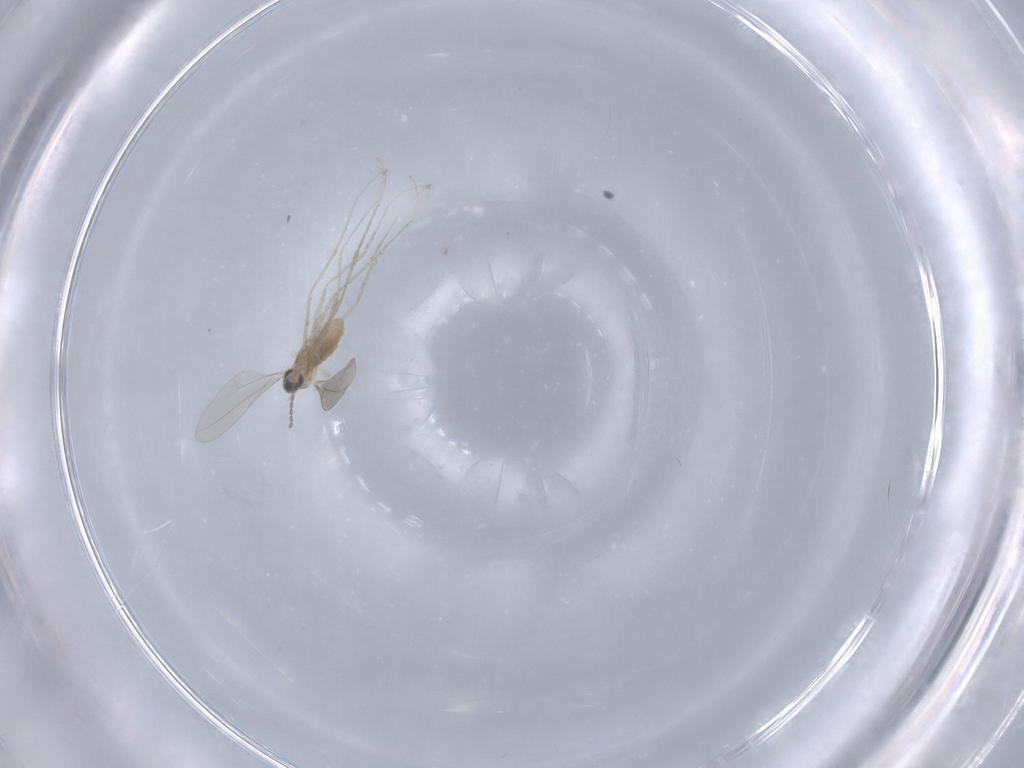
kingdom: Animalia
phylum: Arthropoda
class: Insecta
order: Diptera
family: Cecidomyiidae
